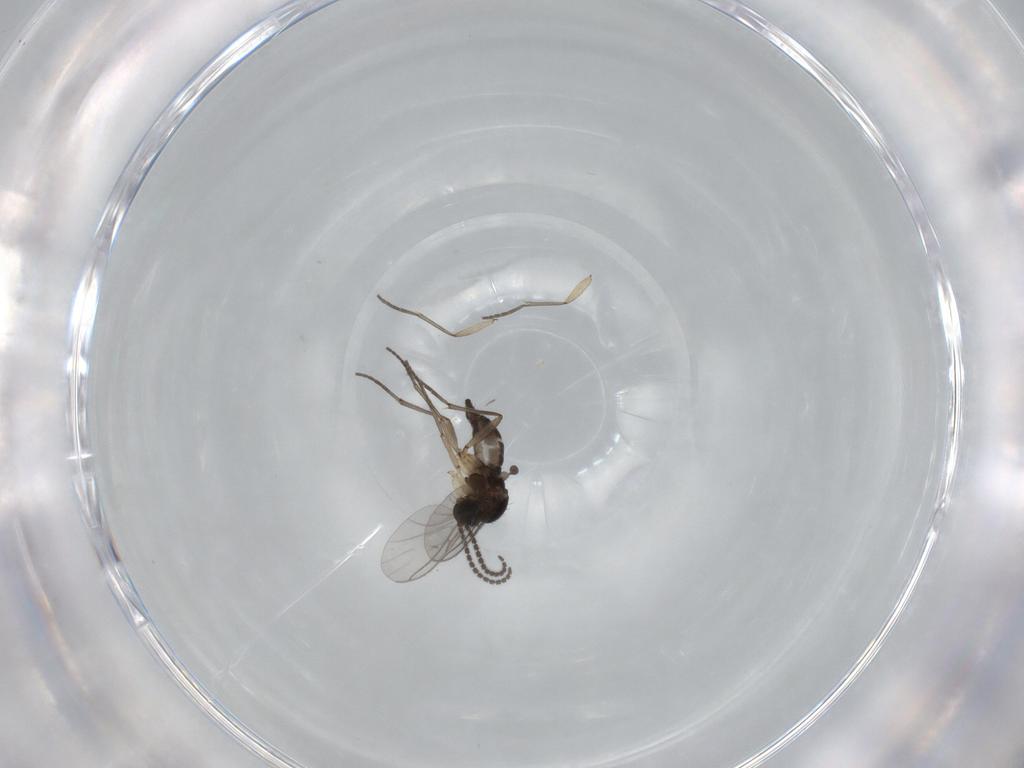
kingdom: Animalia
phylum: Arthropoda
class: Insecta
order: Diptera
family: Sciaridae
